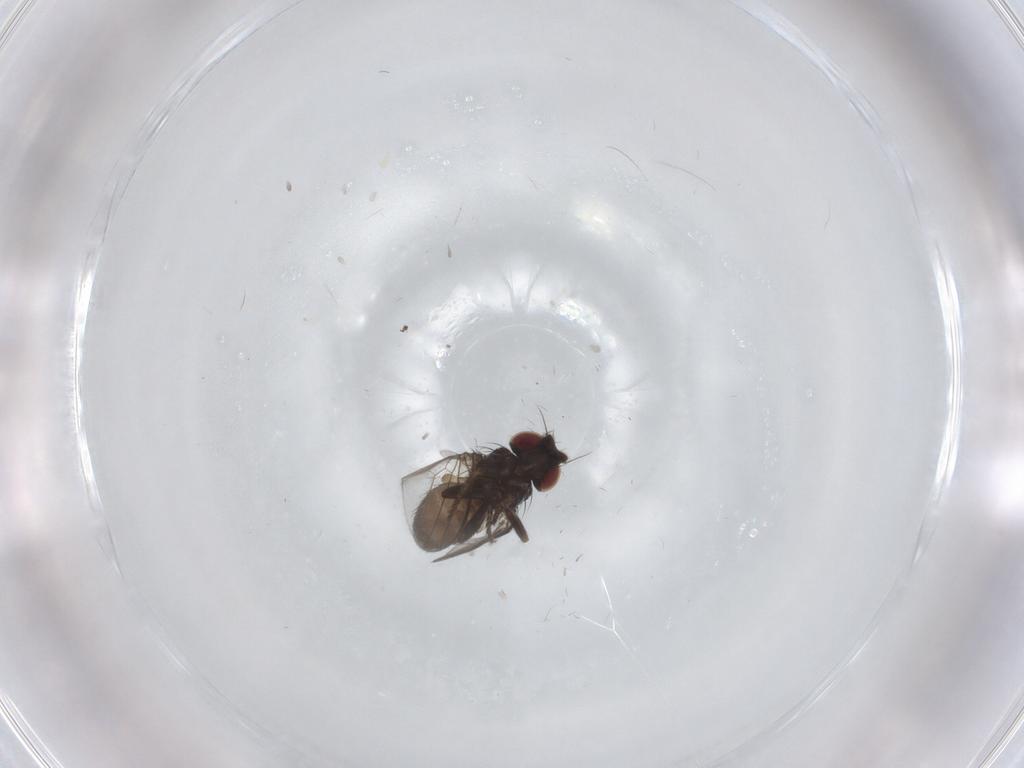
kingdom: Animalia
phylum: Arthropoda
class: Insecta
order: Diptera
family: Milichiidae
